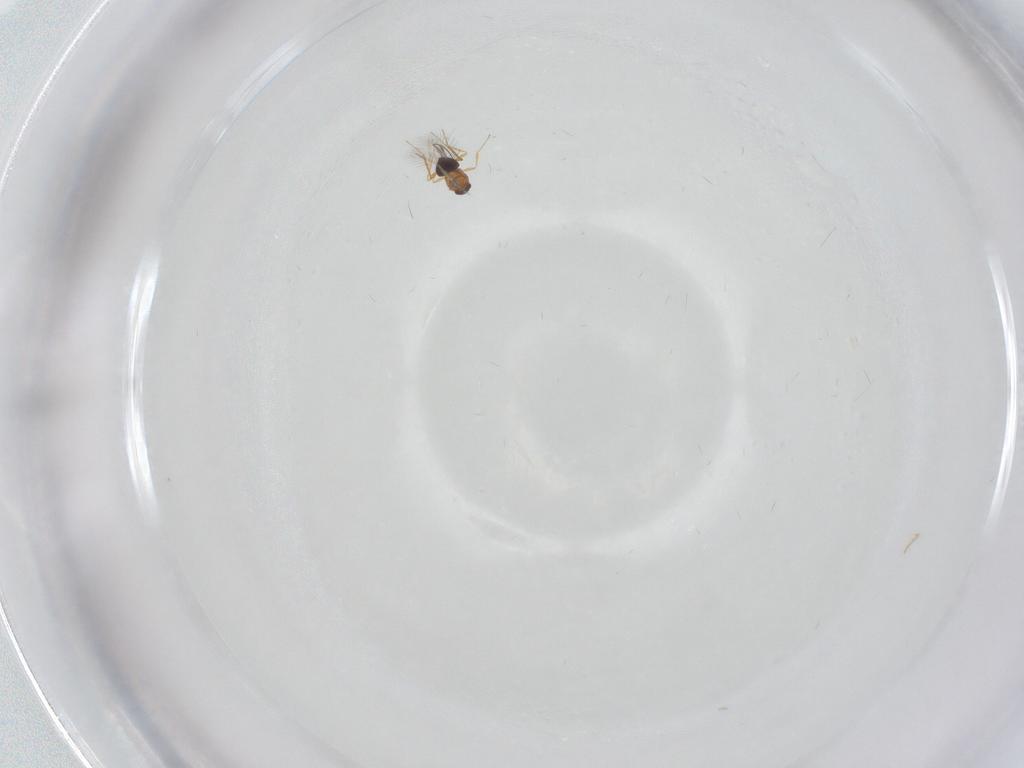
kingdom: Animalia
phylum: Arthropoda
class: Insecta
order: Hymenoptera
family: Mymaridae
